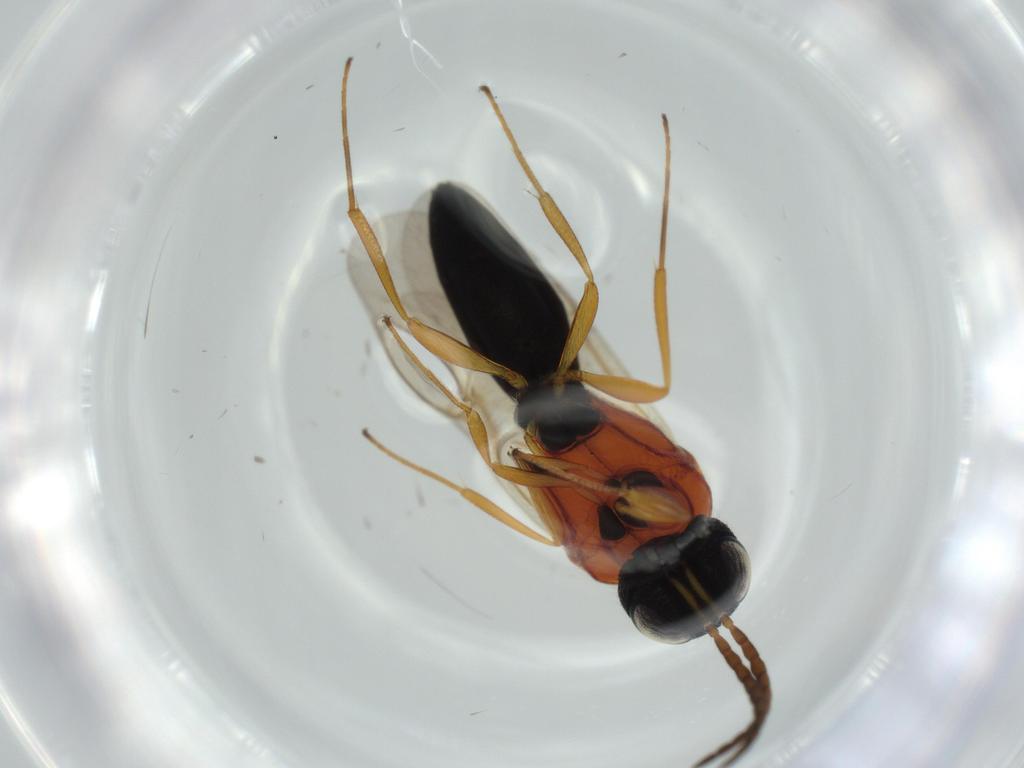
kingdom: Animalia
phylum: Arthropoda
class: Insecta
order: Hymenoptera
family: Scelionidae
